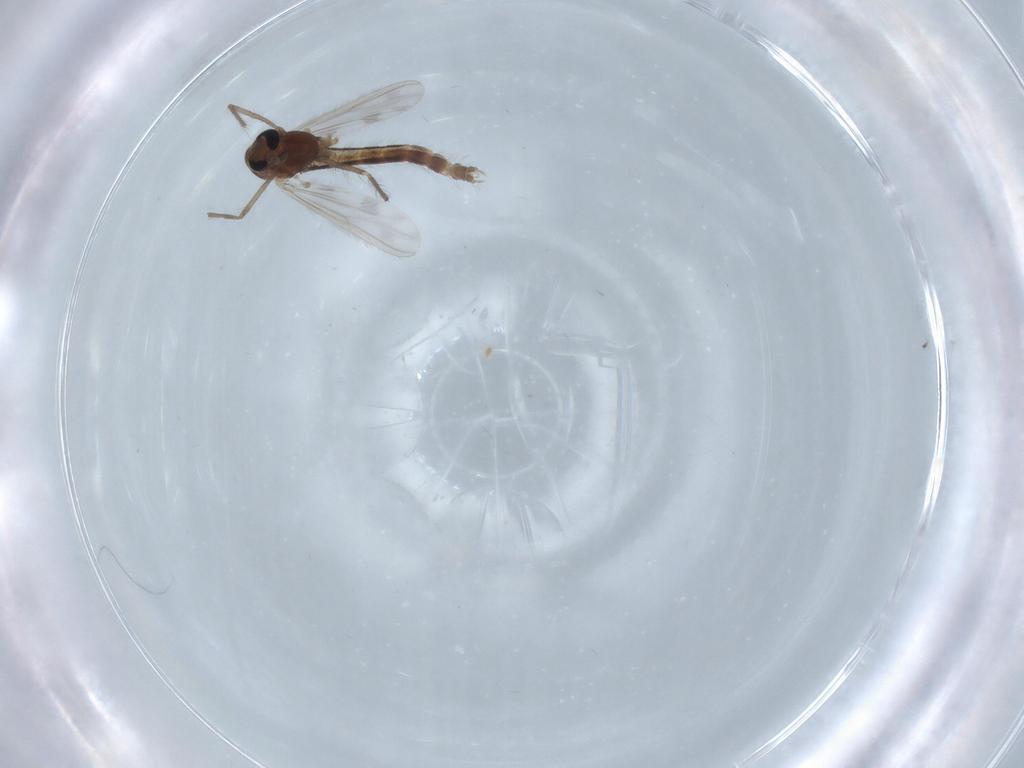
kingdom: Animalia
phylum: Arthropoda
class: Insecta
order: Diptera
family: Chironomidae
